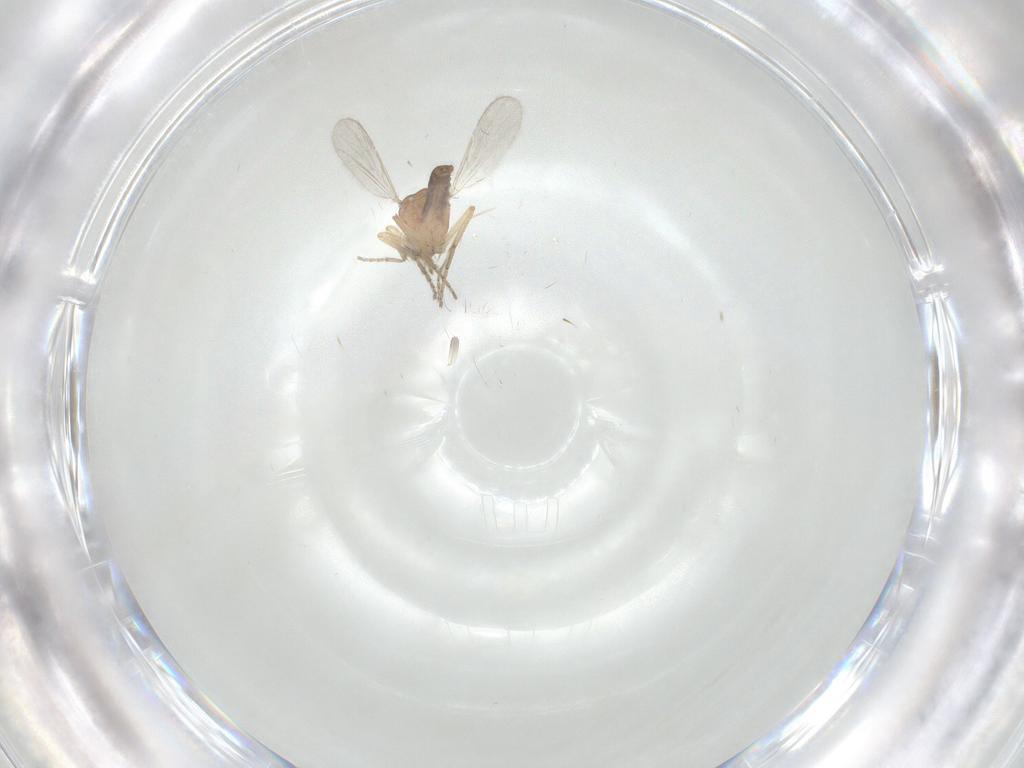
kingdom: Animalia
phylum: Arthropoda
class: Insecta
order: Diptera
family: Ceratopogonidae
